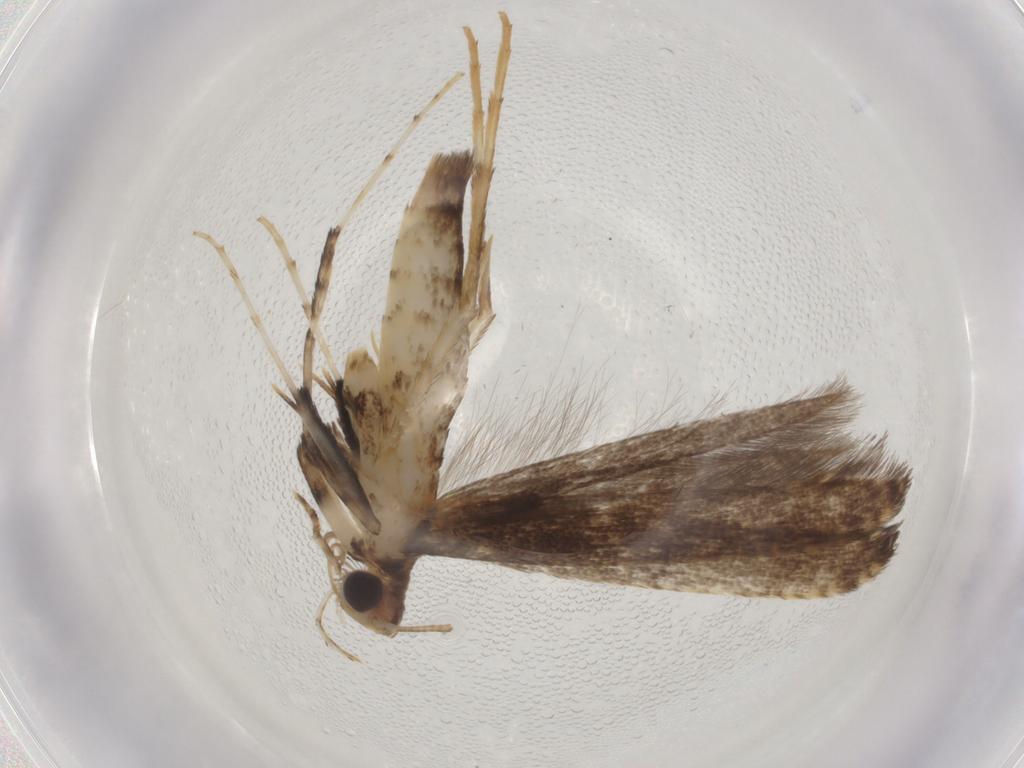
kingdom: Animalia
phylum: Arthropoda
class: Insecta
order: Lepidoptera
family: Gracillariidae
